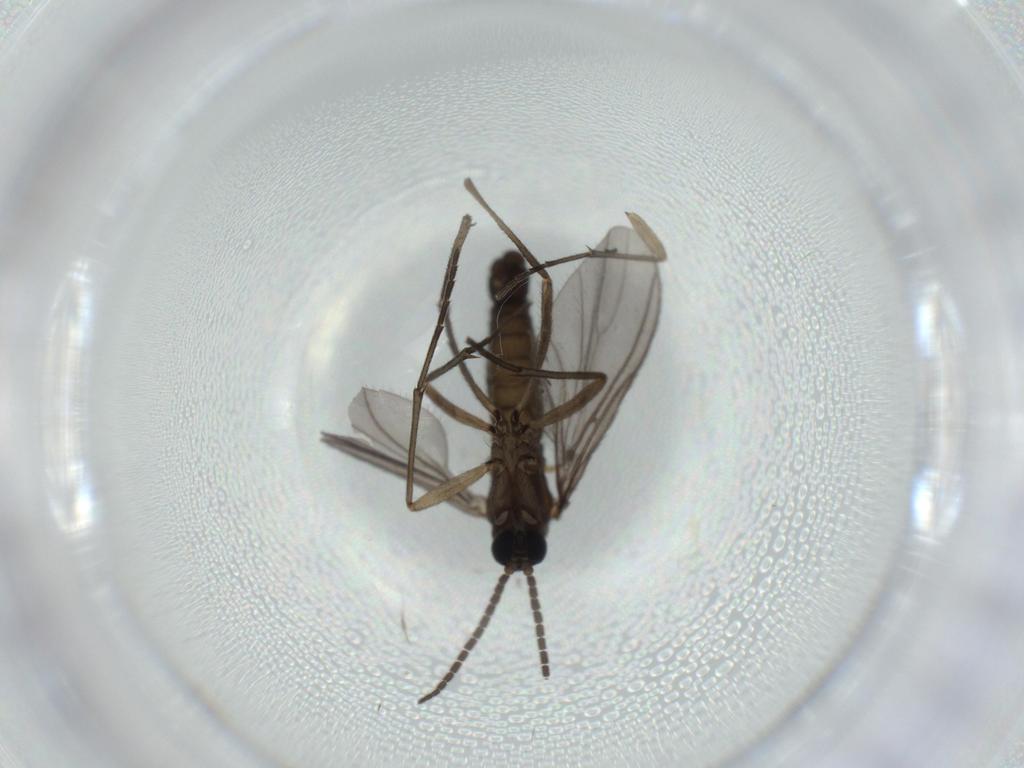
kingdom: Animalia
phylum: Arthropoda
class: Insecta
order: Diptera
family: Sciaridae
